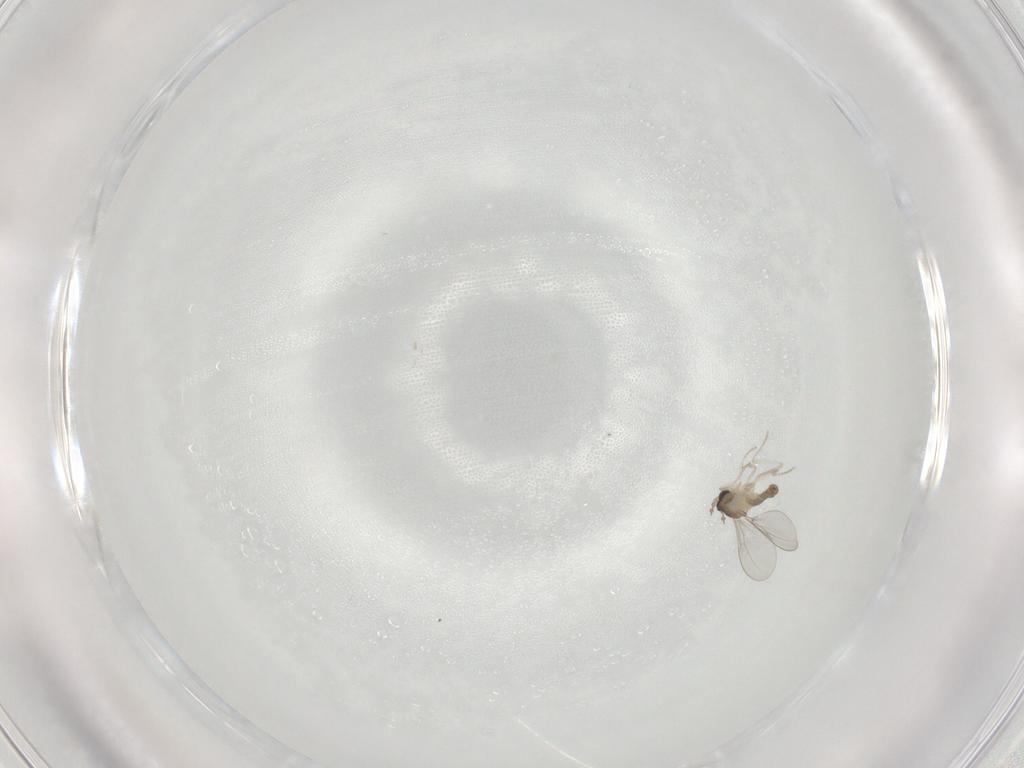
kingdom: Animalia
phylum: Arthropoda
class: Insecta
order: Diptera
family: Cecidomyiidae
